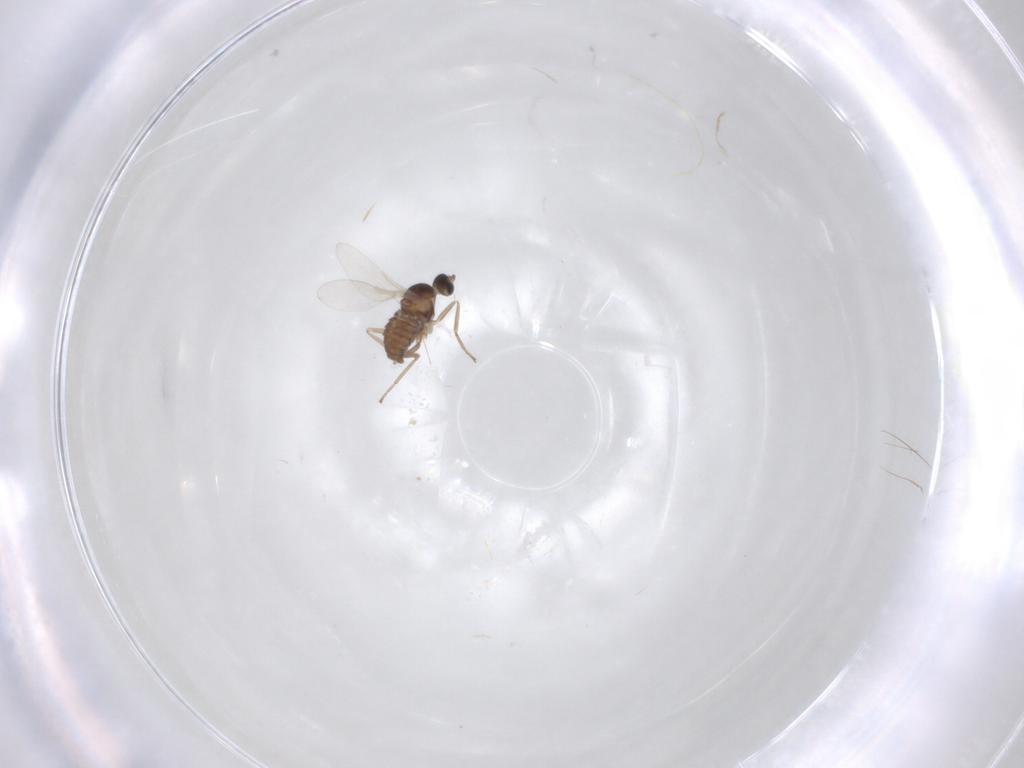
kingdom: Animalia
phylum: Arthropoda
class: Insecta
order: Diptera
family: Cecidomyiidae
